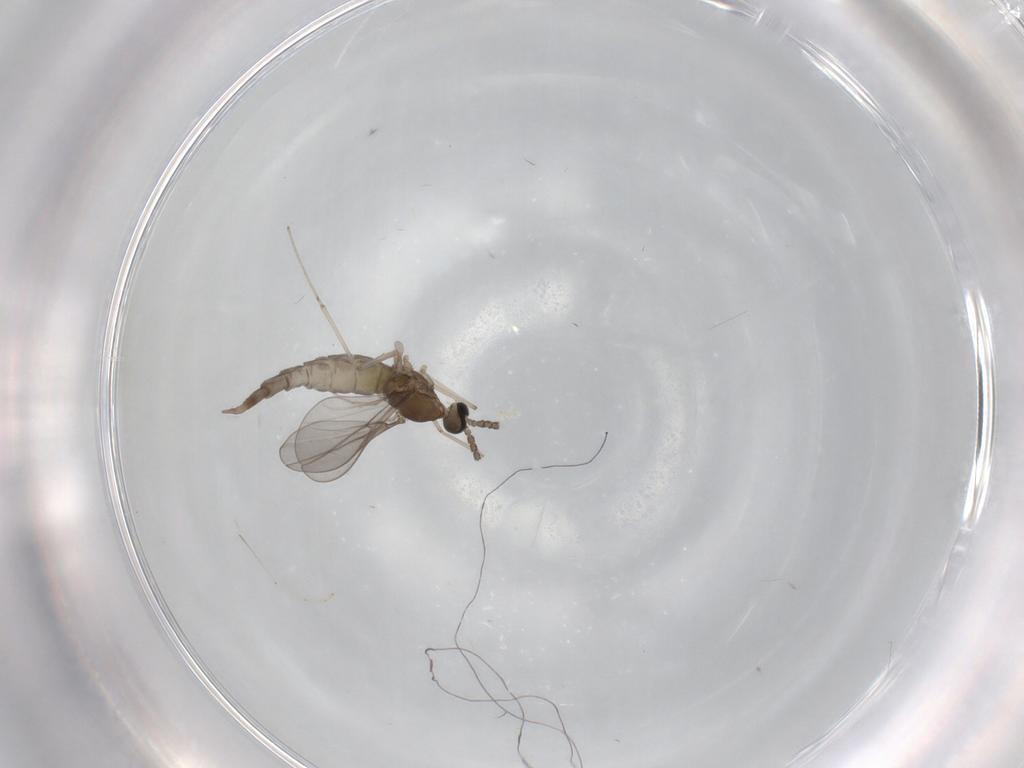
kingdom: Animalia
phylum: Arthropoda
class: Insecta
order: Diptera
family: Cecidomyiidae
